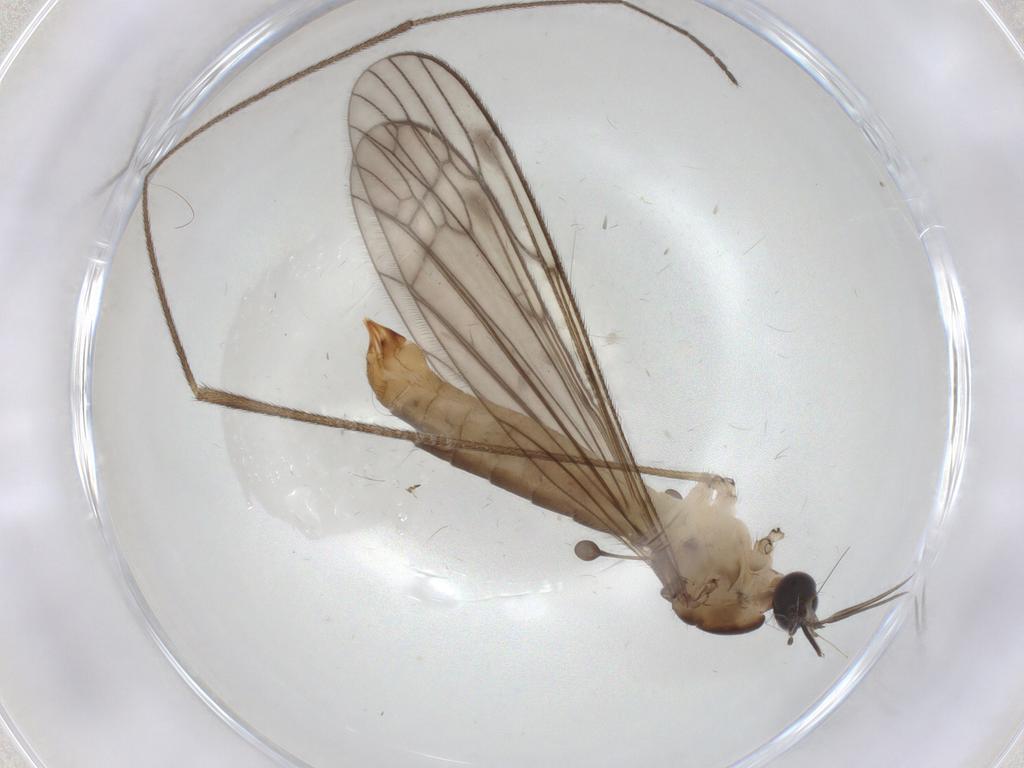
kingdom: Animalia
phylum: Arthropoda
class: Insecta
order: Diptera
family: Limoniidae
